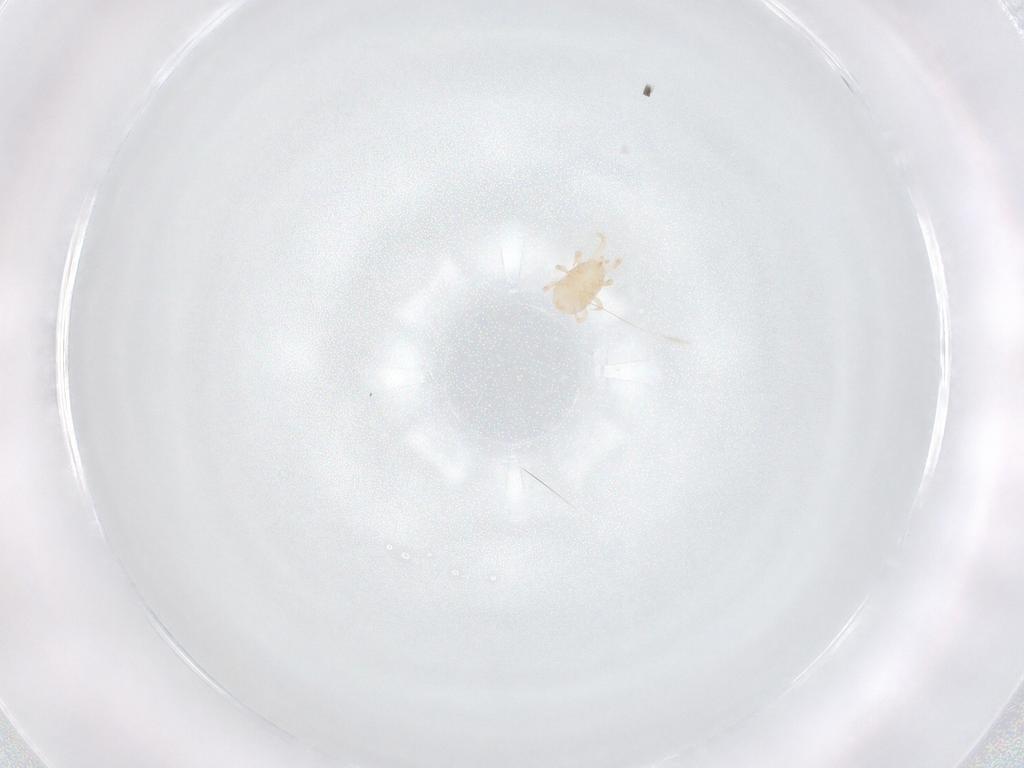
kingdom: Animalia
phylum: Arthropoda
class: Arachnida
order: Mesostigmata
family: Melicharidae
